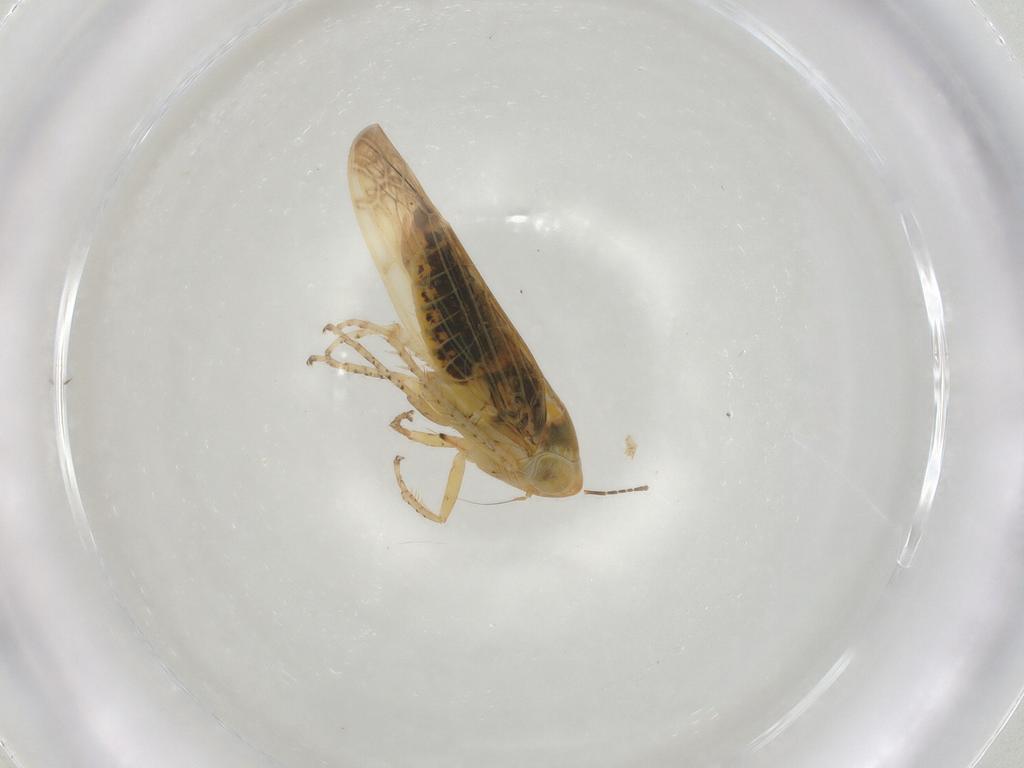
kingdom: Animalia
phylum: Arthropoda
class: Insecta
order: Hemiptera
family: Cicadellidae
